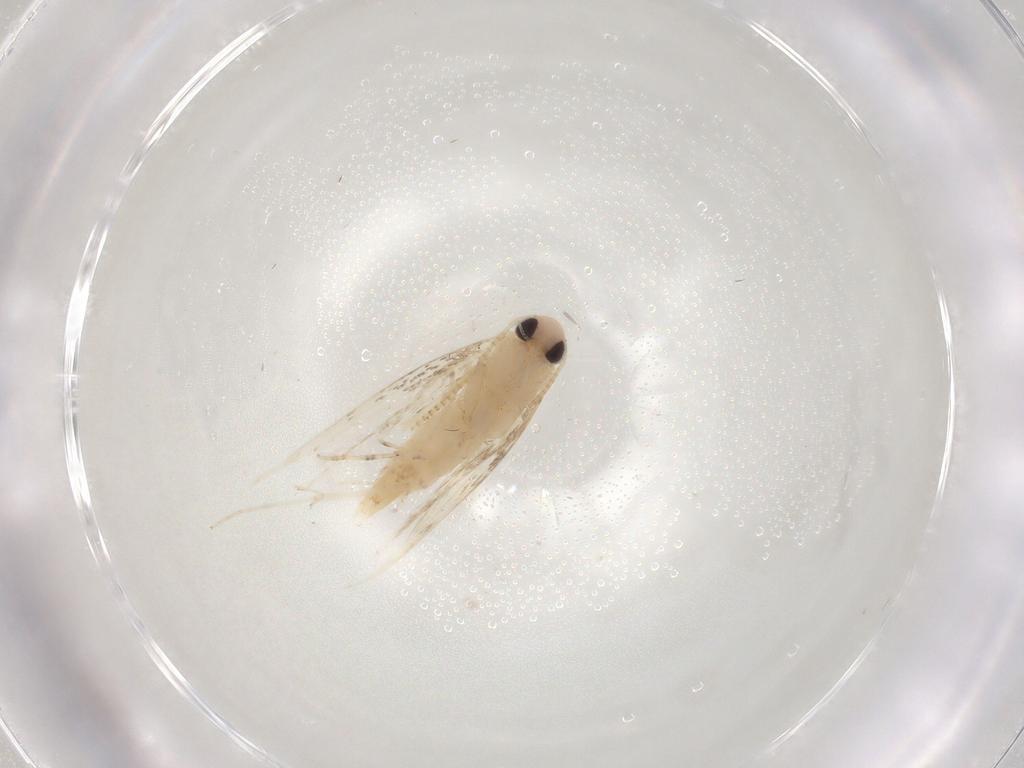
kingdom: Animalia
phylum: Arthropoda
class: Insecta
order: Lepidoptera
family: Gracillariidae
